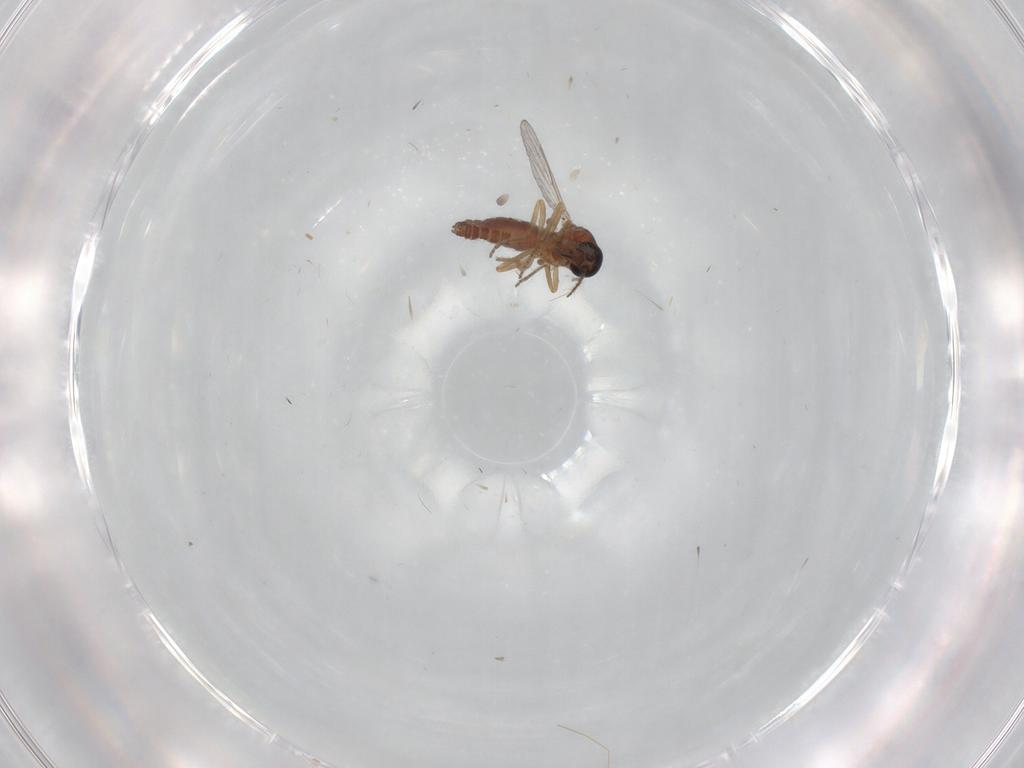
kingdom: Animalia
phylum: Arthropoda
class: Insecta
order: Diptera
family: Ceratopogonidae
